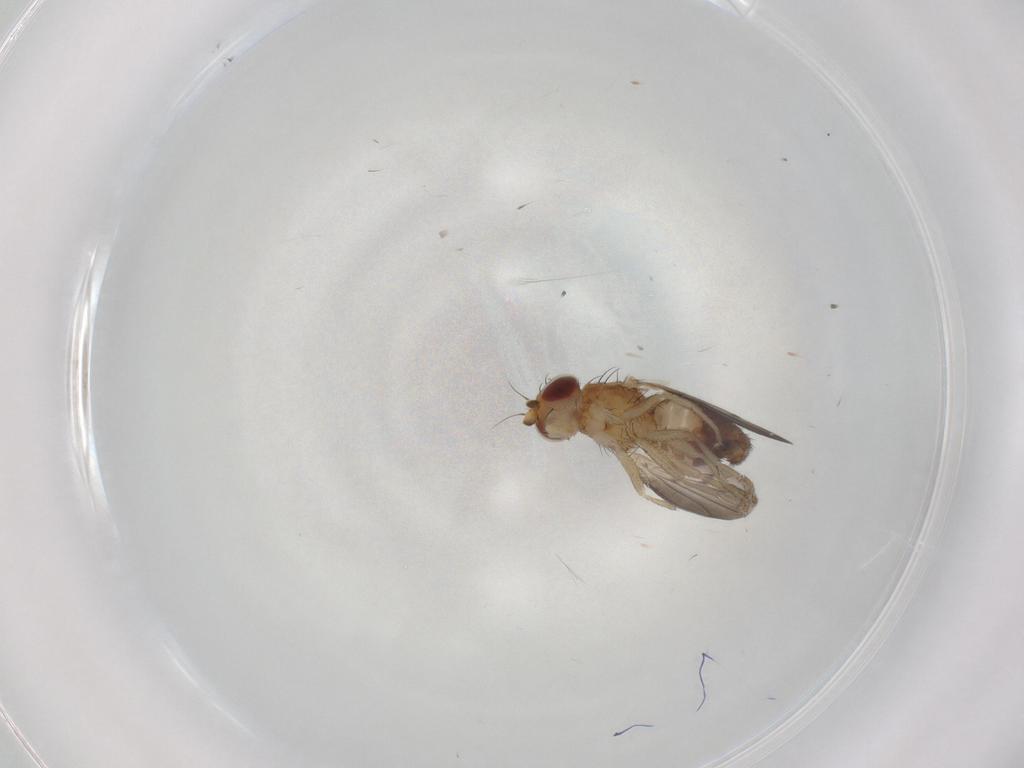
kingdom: Animalia
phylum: Arthropoda
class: Insecta
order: Diptera
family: Heleomyzidae
